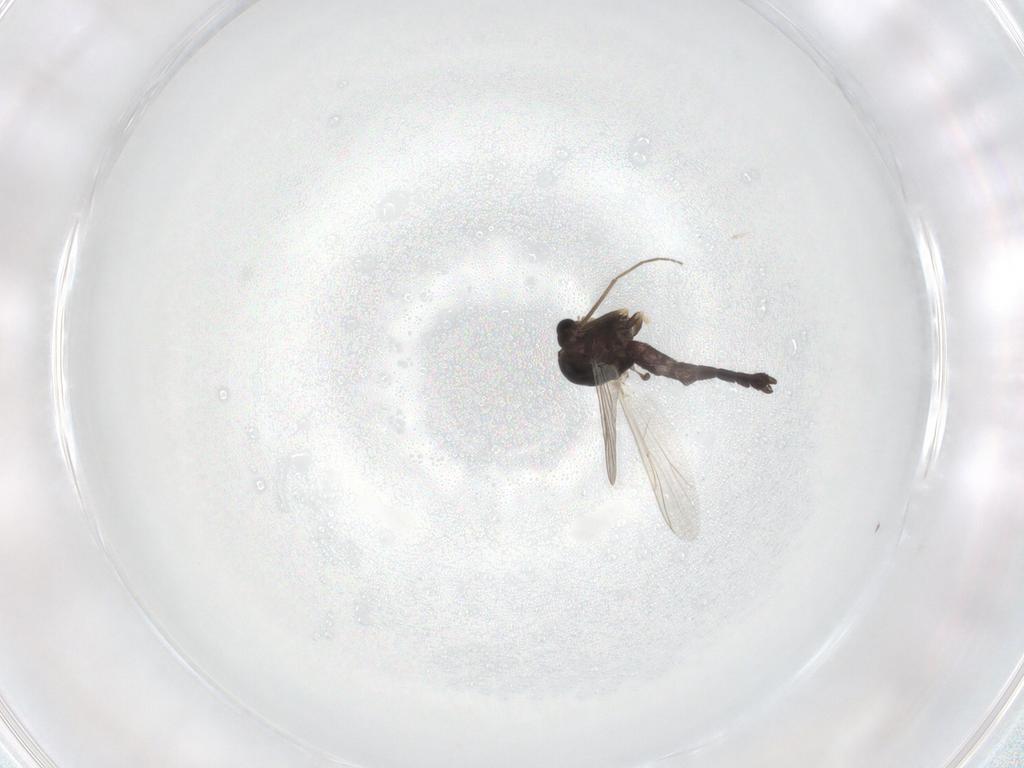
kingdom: Animalia
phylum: Arthropoda
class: Insecta
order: Diptera
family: Chironomidae
